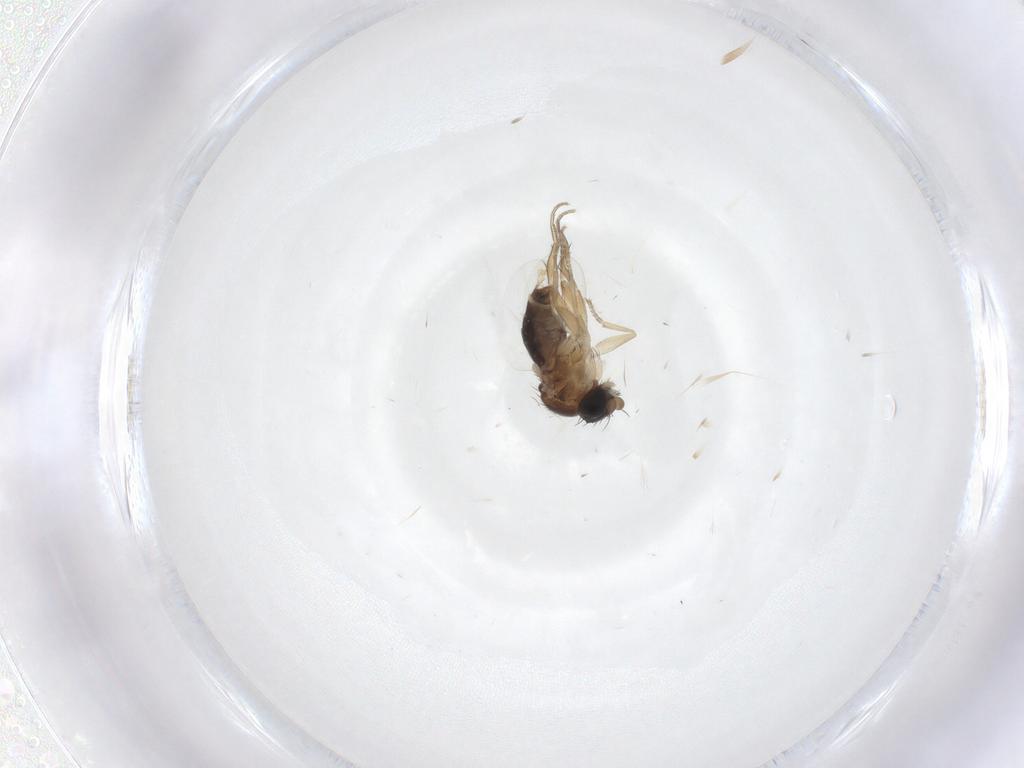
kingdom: Animalia
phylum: Arthropoda
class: Insecta
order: Diptera
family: Phoridae
